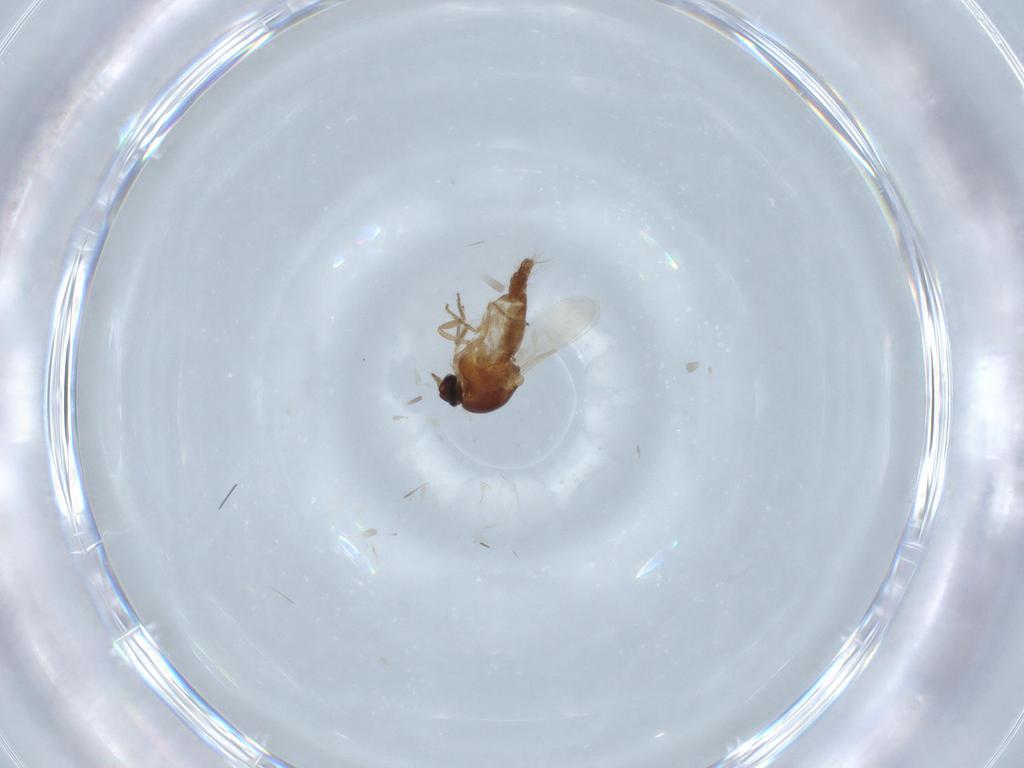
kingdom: Animalia
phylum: Arthropoda
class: Insecta
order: Diptera
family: Ceratopogonidae
